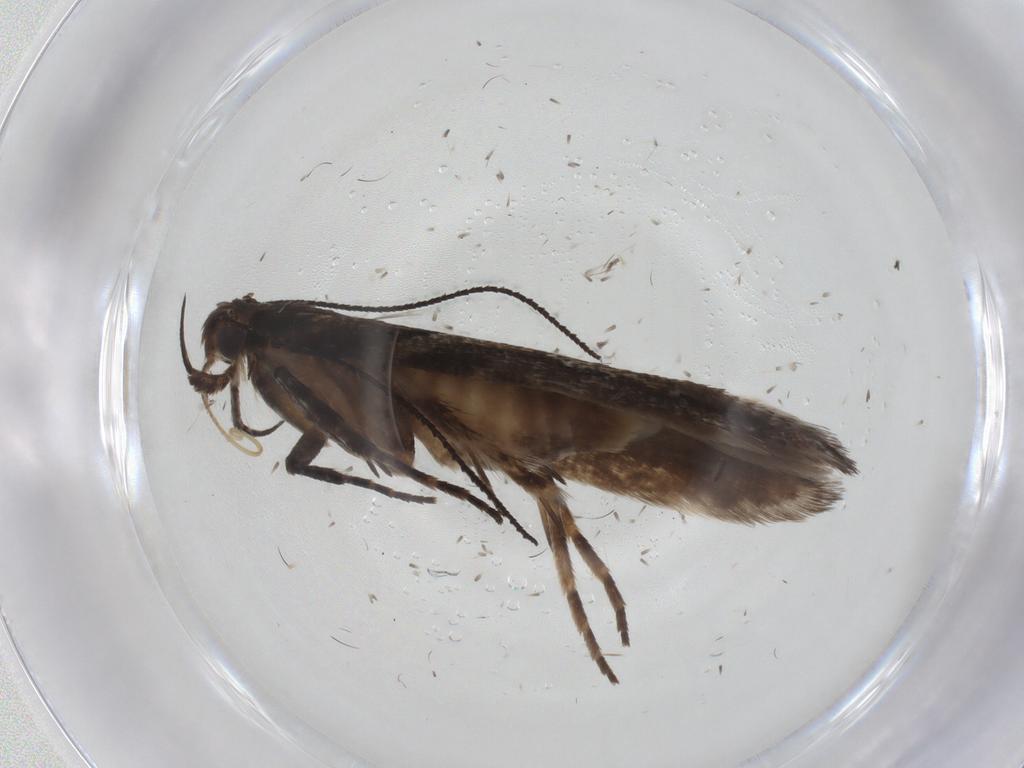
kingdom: Animalia
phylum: Arthropoda
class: Insecta
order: Lepidoptera
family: Gelechiidae
